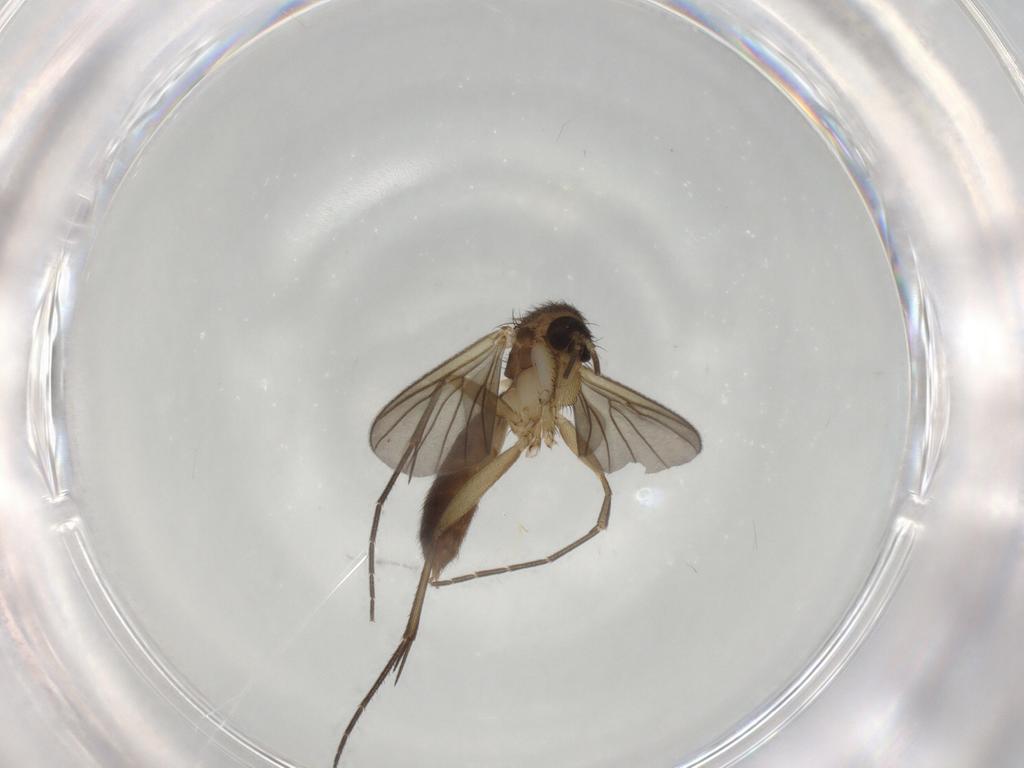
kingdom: Animalia
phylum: Arthropoda
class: Insecta
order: Diptera
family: Mycetophilidae
